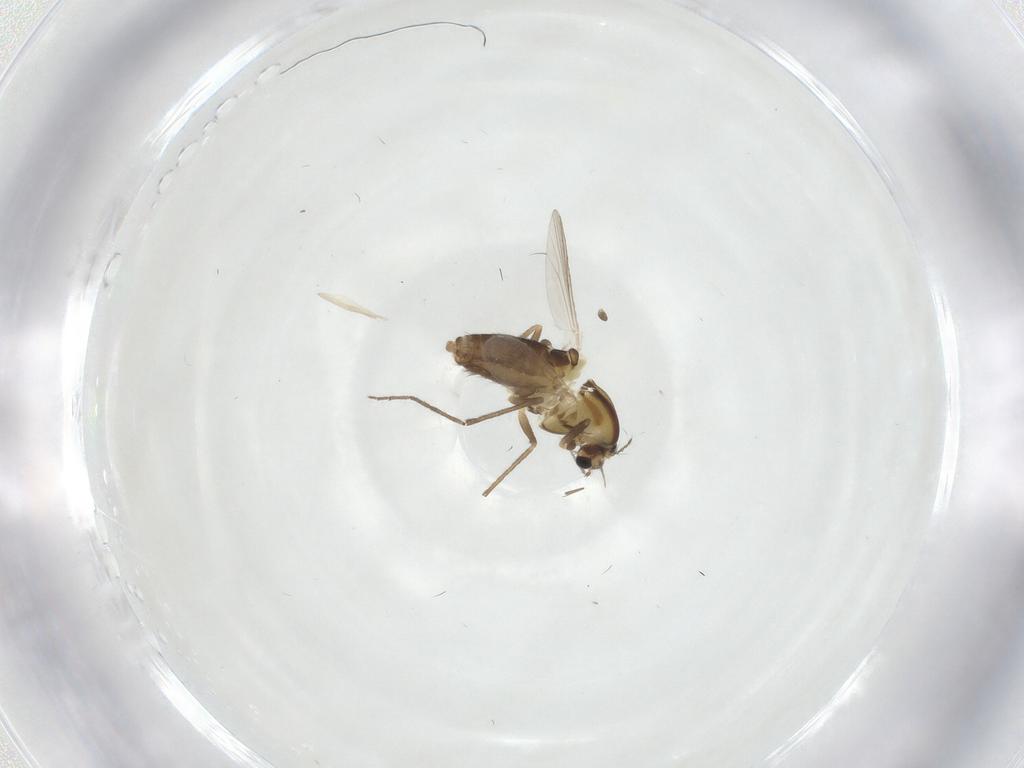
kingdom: Animalia
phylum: Arthropoda
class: Insecta
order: Diptera
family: Chironomidae
